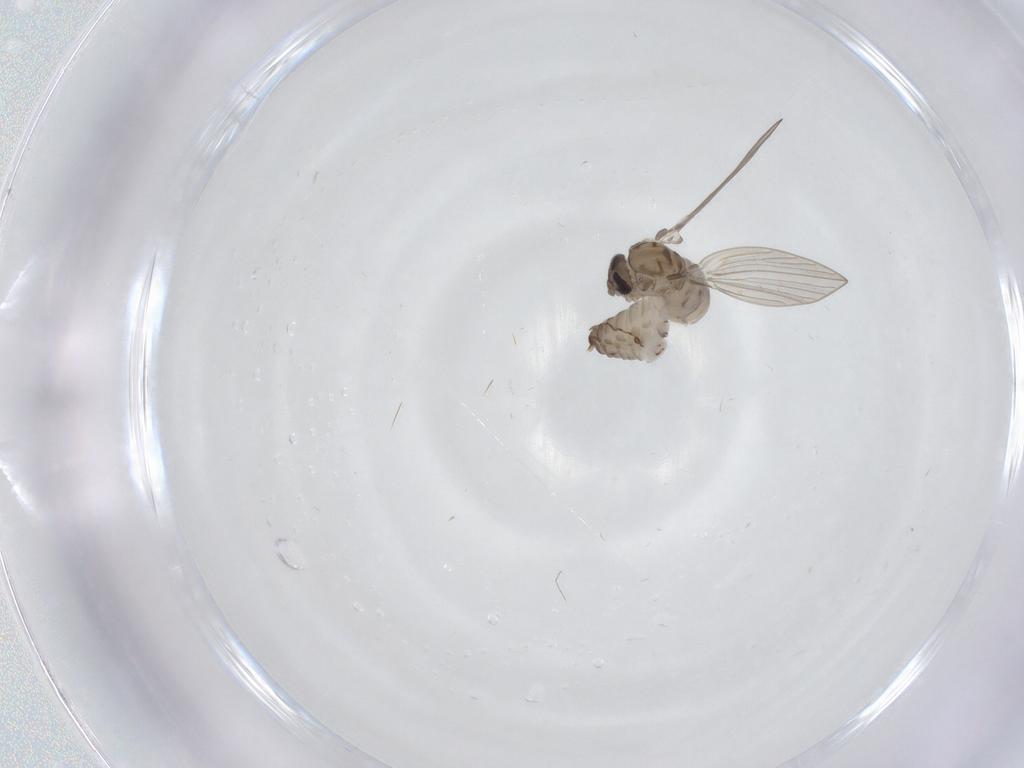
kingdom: Animalia
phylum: Arthropoda
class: Insecta
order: Diptera
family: Psychodidae
